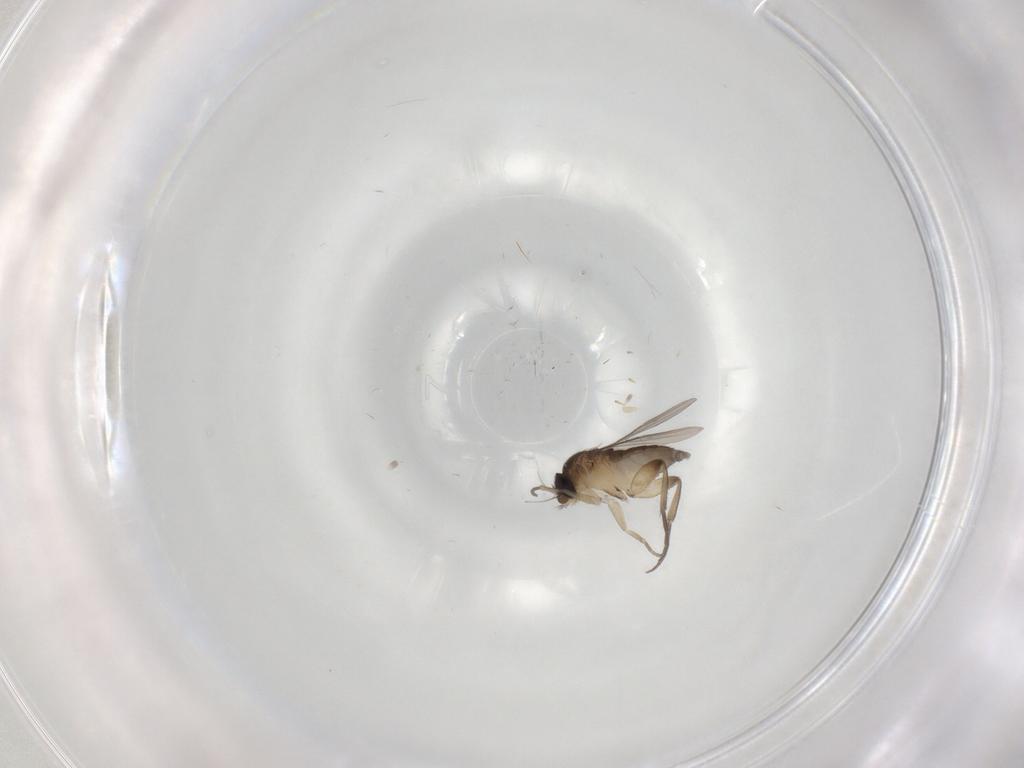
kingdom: Animalia
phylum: Arthropoda
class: Insecta
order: Diptera
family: Phoridae
